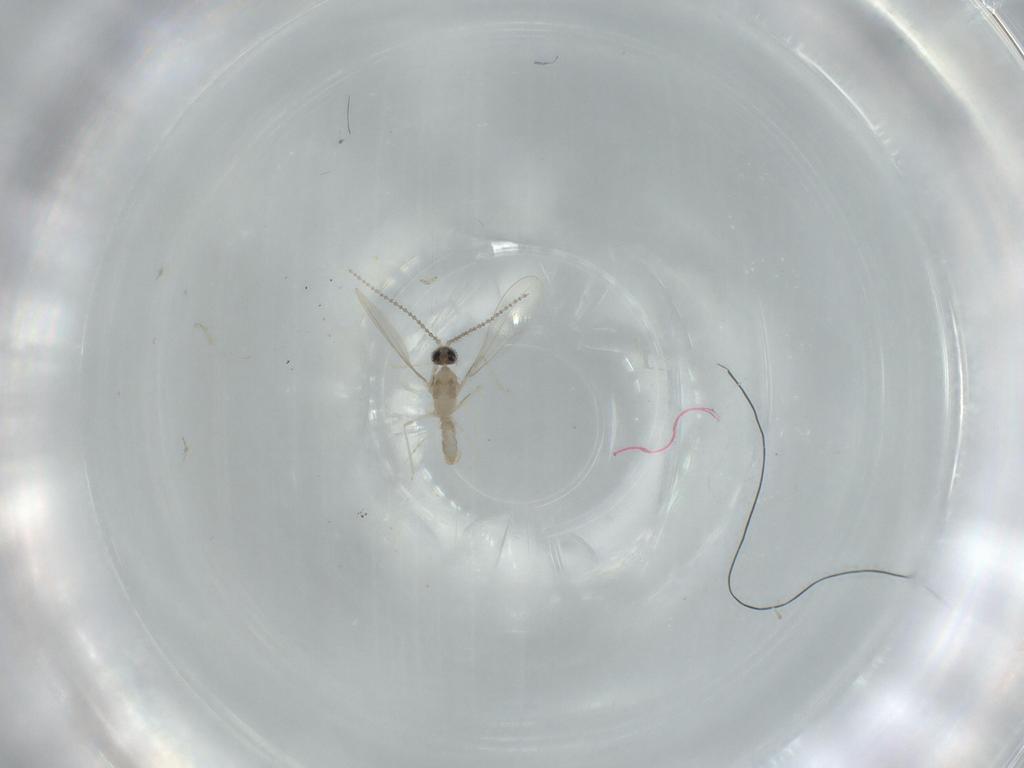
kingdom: Animalia
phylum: Arthropoda
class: Insecta
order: Diptera
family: Cecidomyiidae
